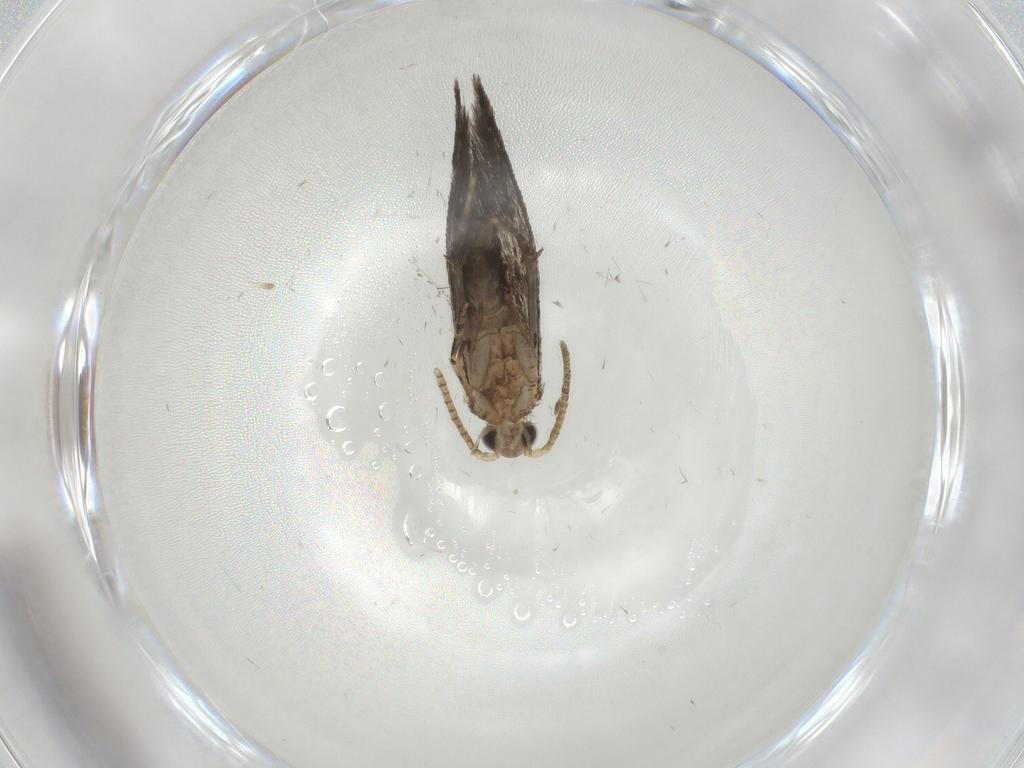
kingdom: Animalia
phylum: Arthropoda
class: Insecta
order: Lepidoptera
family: Tineidae
